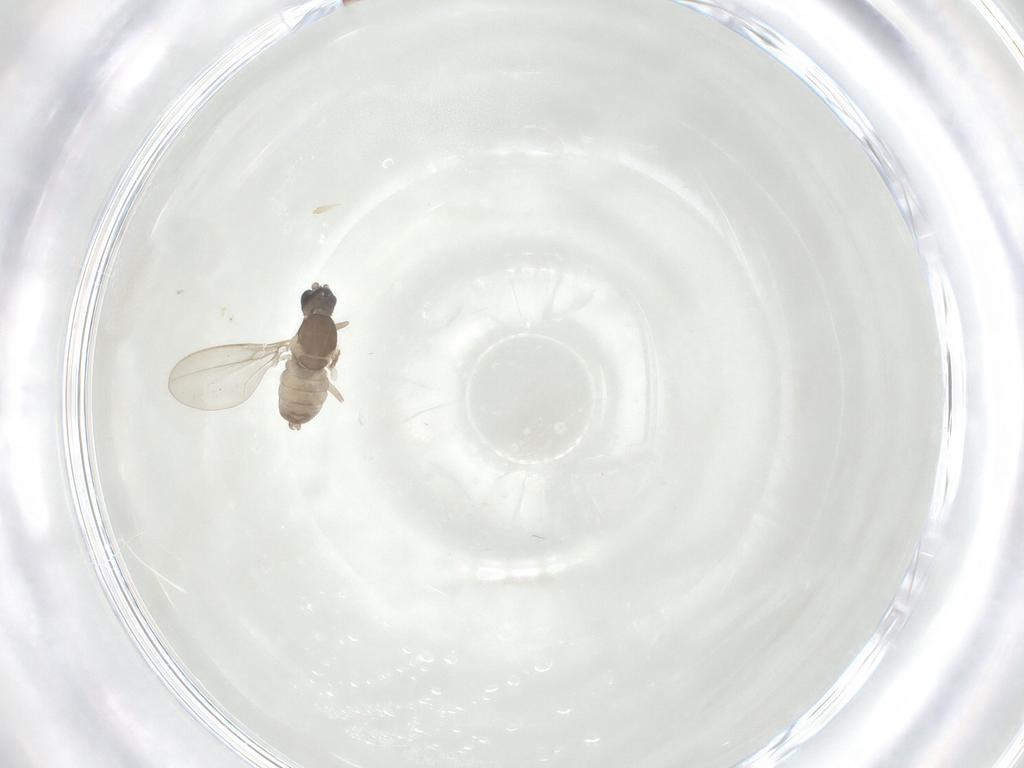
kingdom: Animalia
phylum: Arthropoda
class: Insecta
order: Diptera
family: Cecidomyiidae
